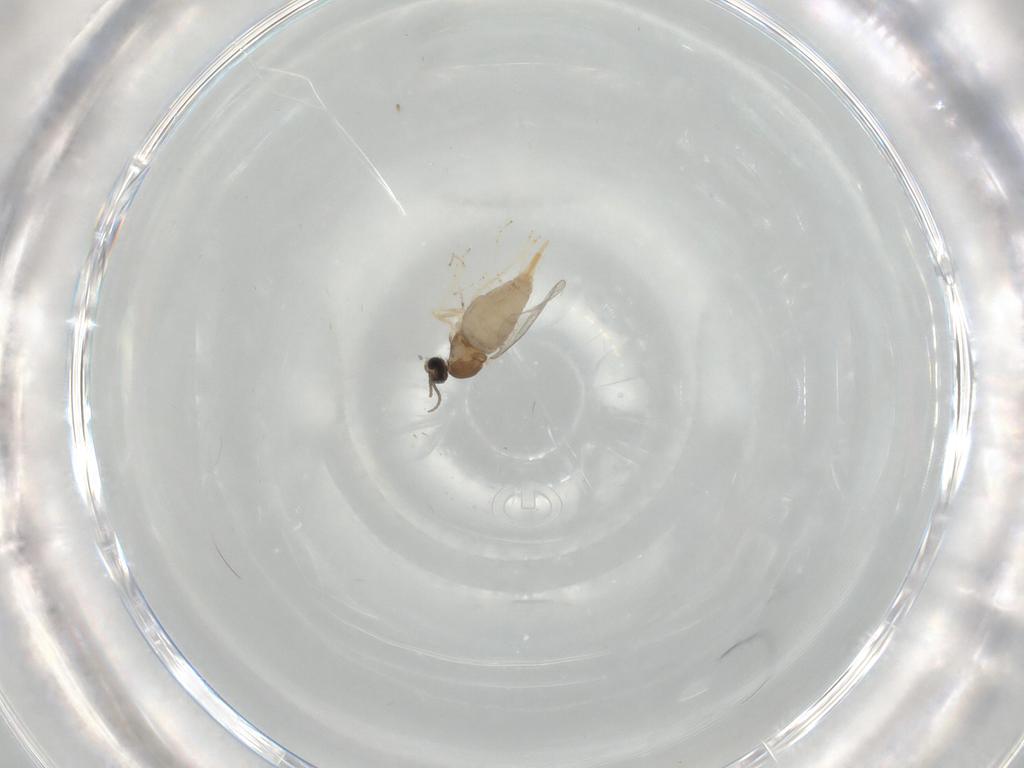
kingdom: Animalia
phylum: Arthropoda
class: Insecta
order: Diptera
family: Cecidomyiidae
